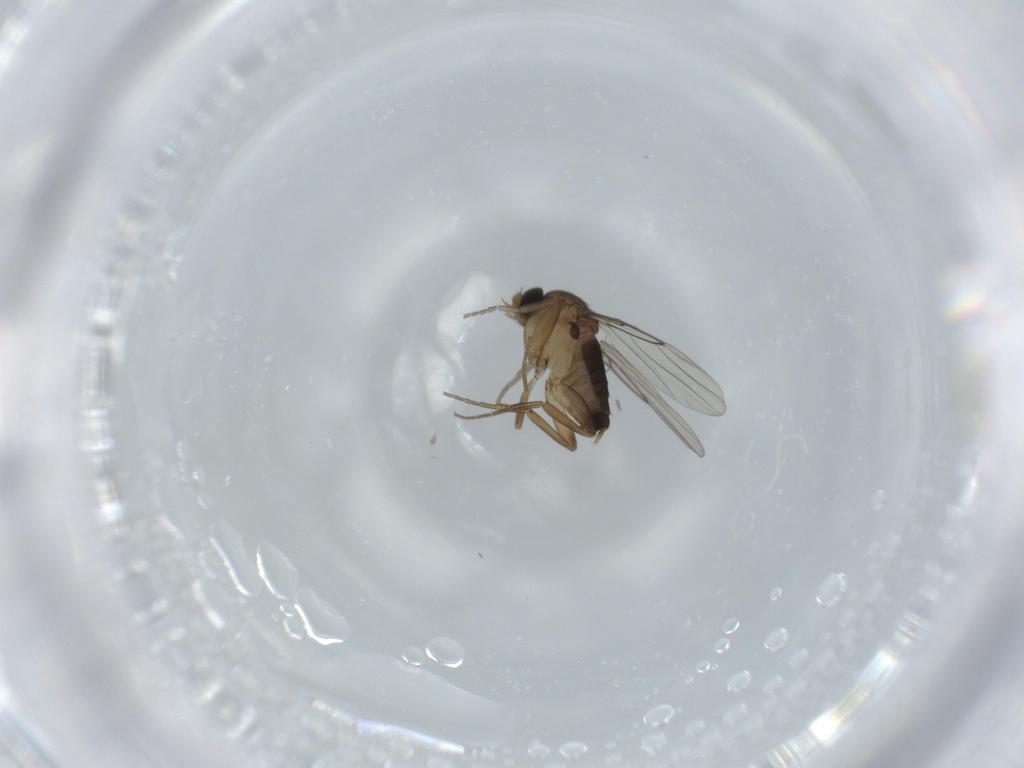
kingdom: Animalia
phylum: Arthropoda
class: Insecta
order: Diptera
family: Phoridae
